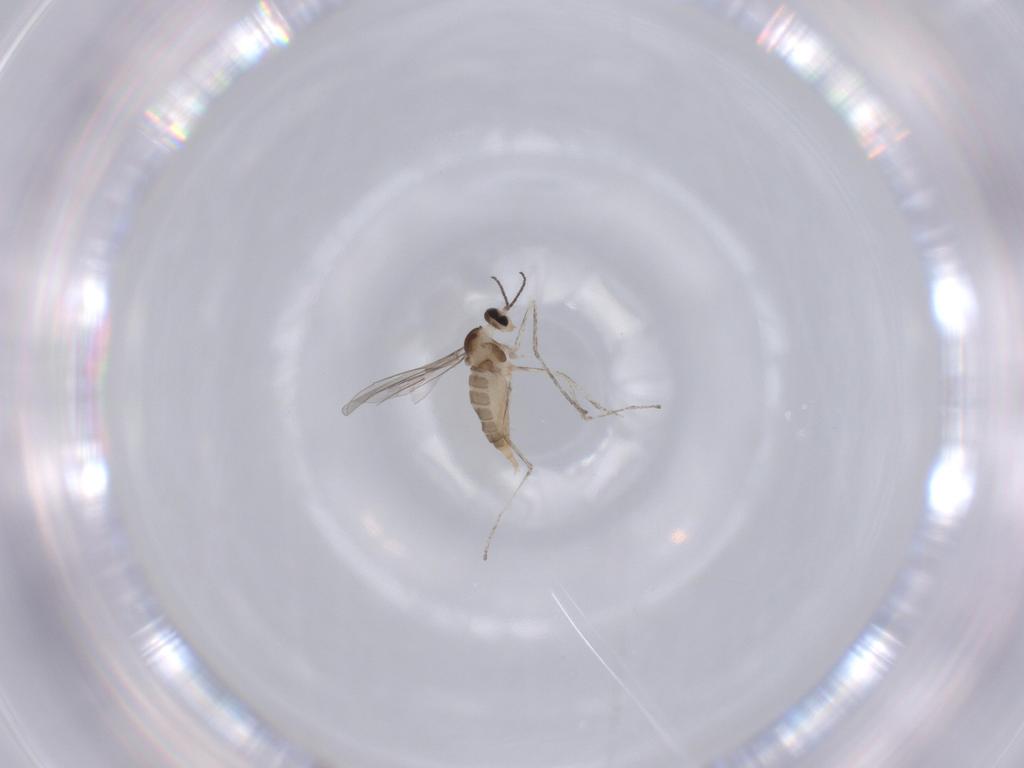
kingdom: Animalia
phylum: Arthropoda
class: Insecta
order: Diptera
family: Cecidomyiidae
